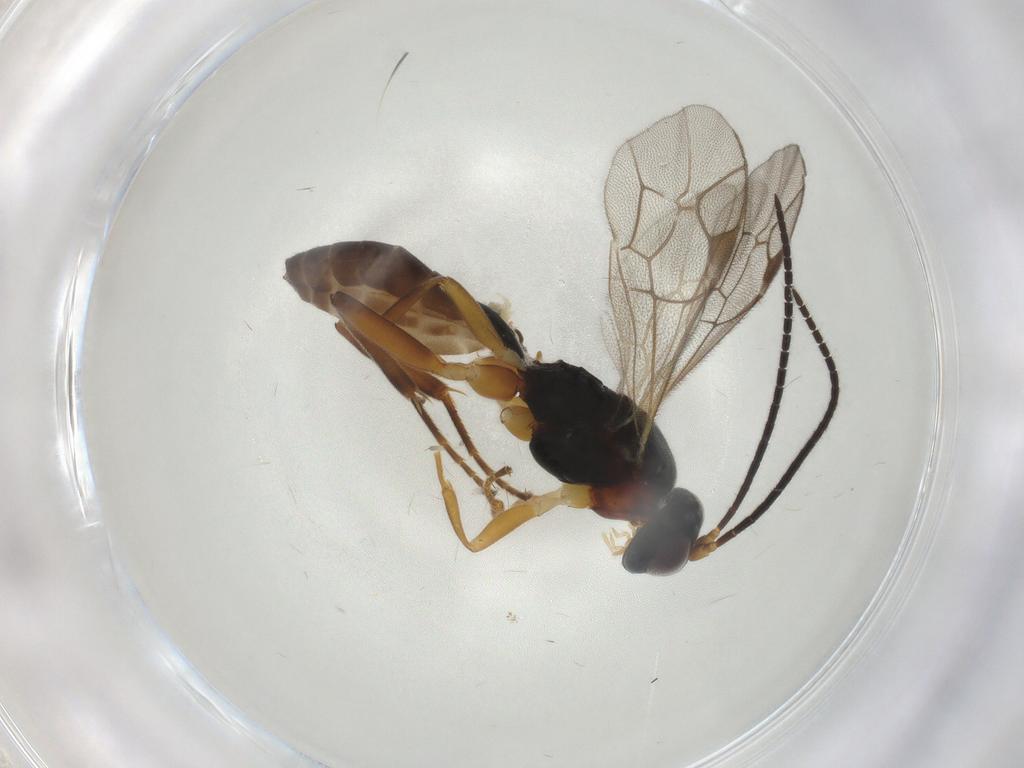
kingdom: Animalia
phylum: Arthropoda
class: Insecta
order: Hymenoptera
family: Ichneumonidae
